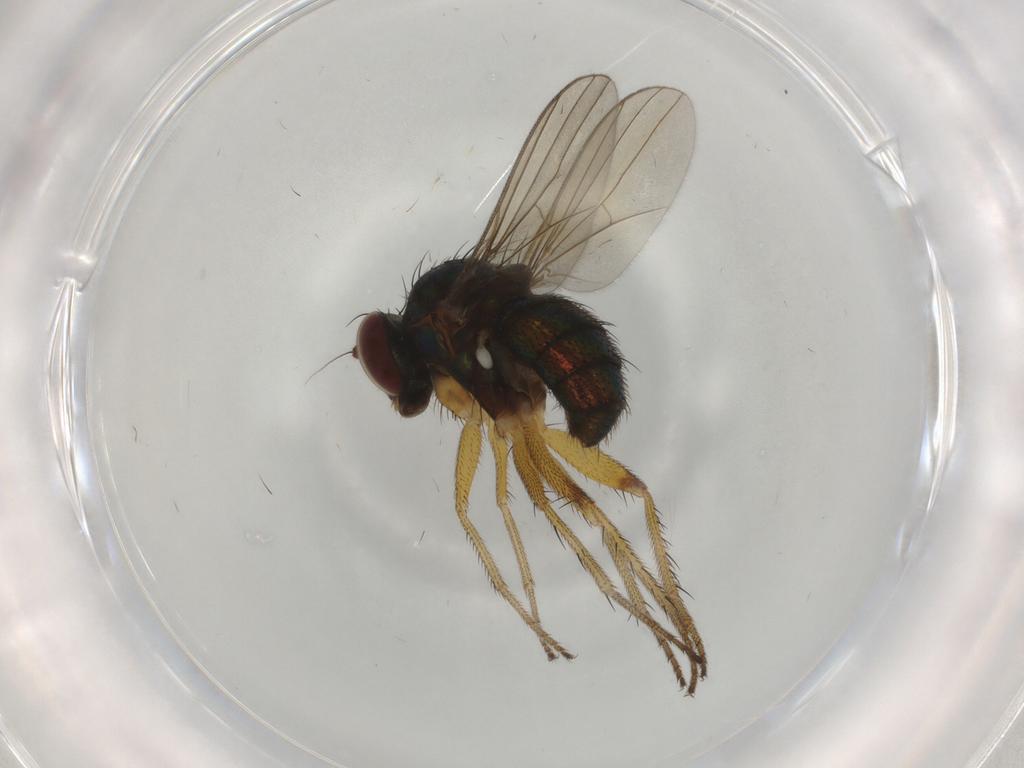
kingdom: Animalia
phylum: Arthropoda
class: Insecta
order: Diptera
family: Dolichopodidae
